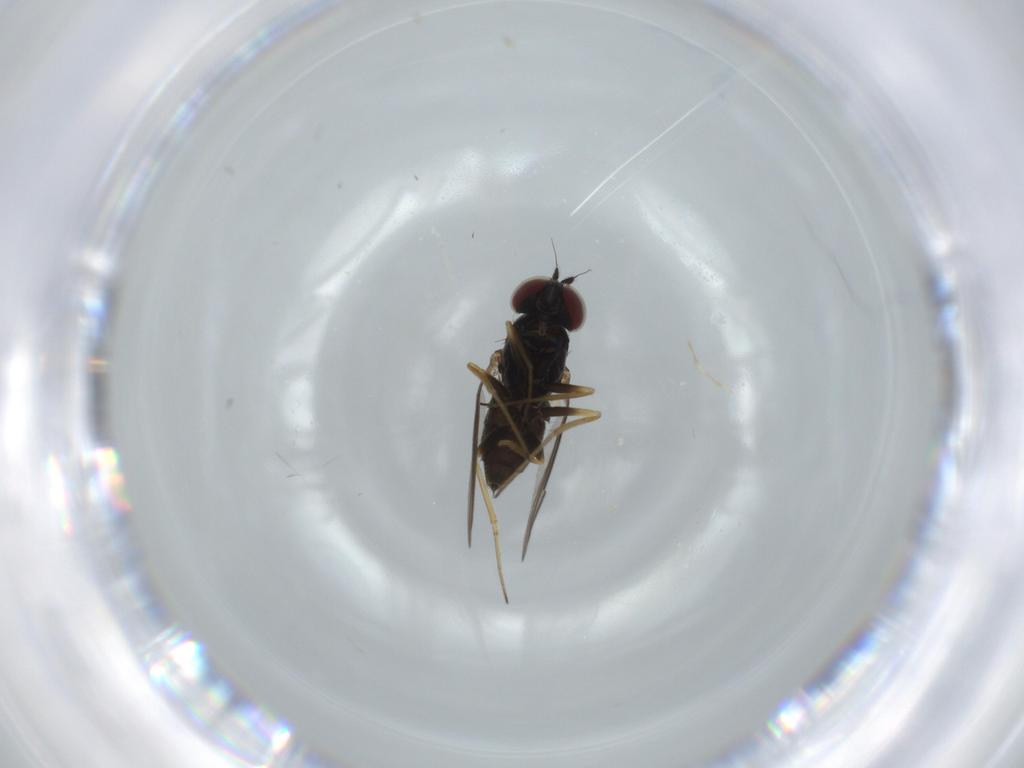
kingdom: Animalia
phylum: Arthropoda
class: Insecta
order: Diptera
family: Dolichopodidae
